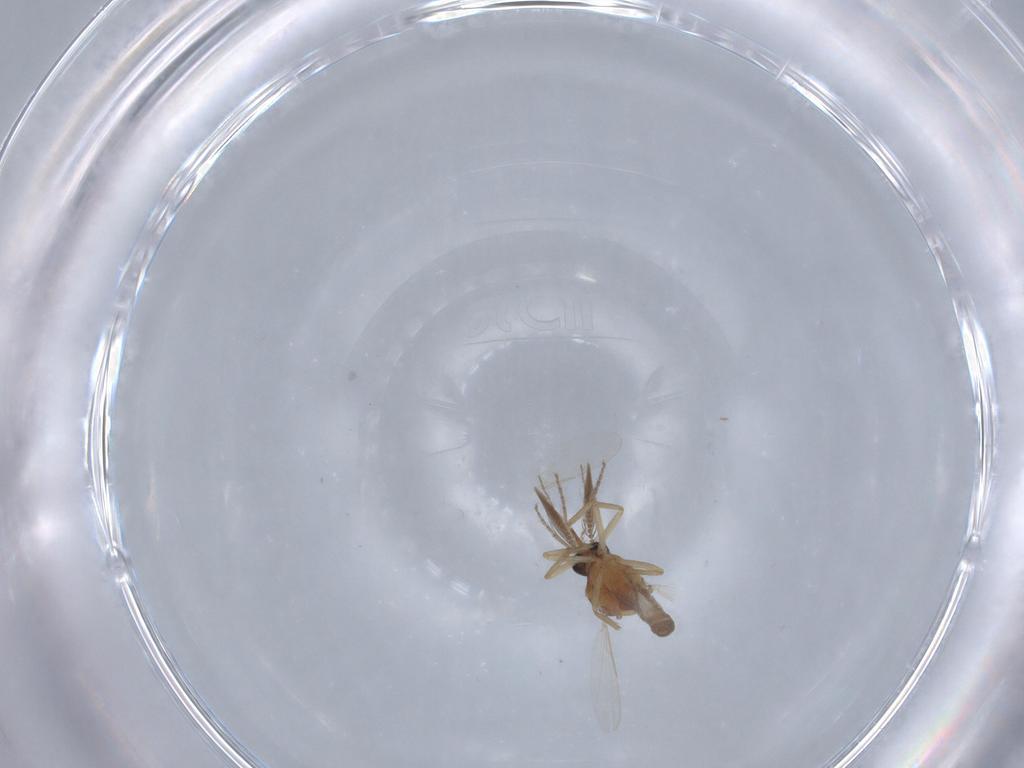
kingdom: Animalia
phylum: Arthropoda
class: Insecta
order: Diptera
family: Ceratopogonidae
